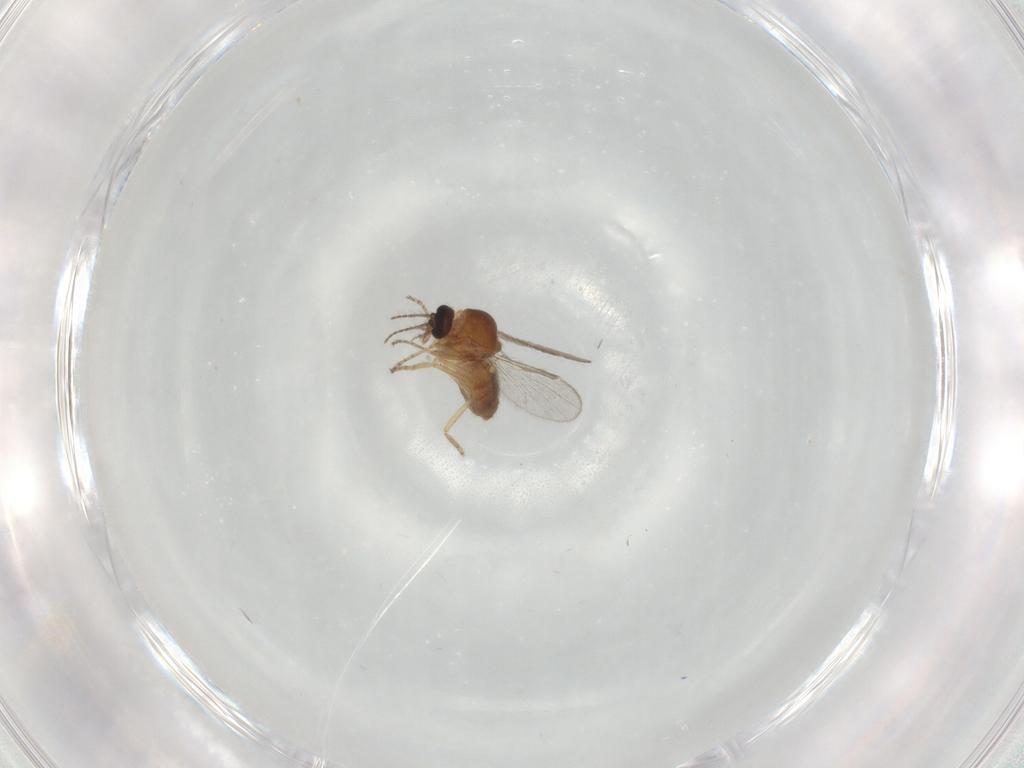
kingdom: Animalia
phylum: Arthropoda
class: Insecta
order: Diptera
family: Ceratopogonidae
